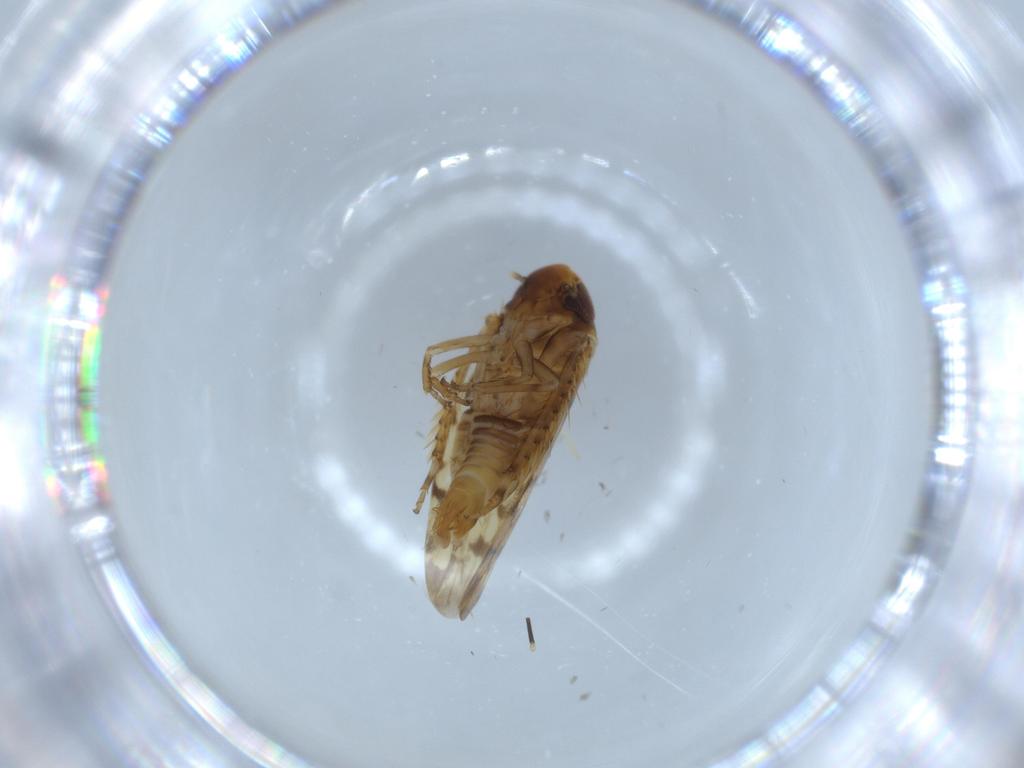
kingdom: Animalia
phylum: Arthropoda
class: Insecta
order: Hemiptera
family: Cicadellidae
